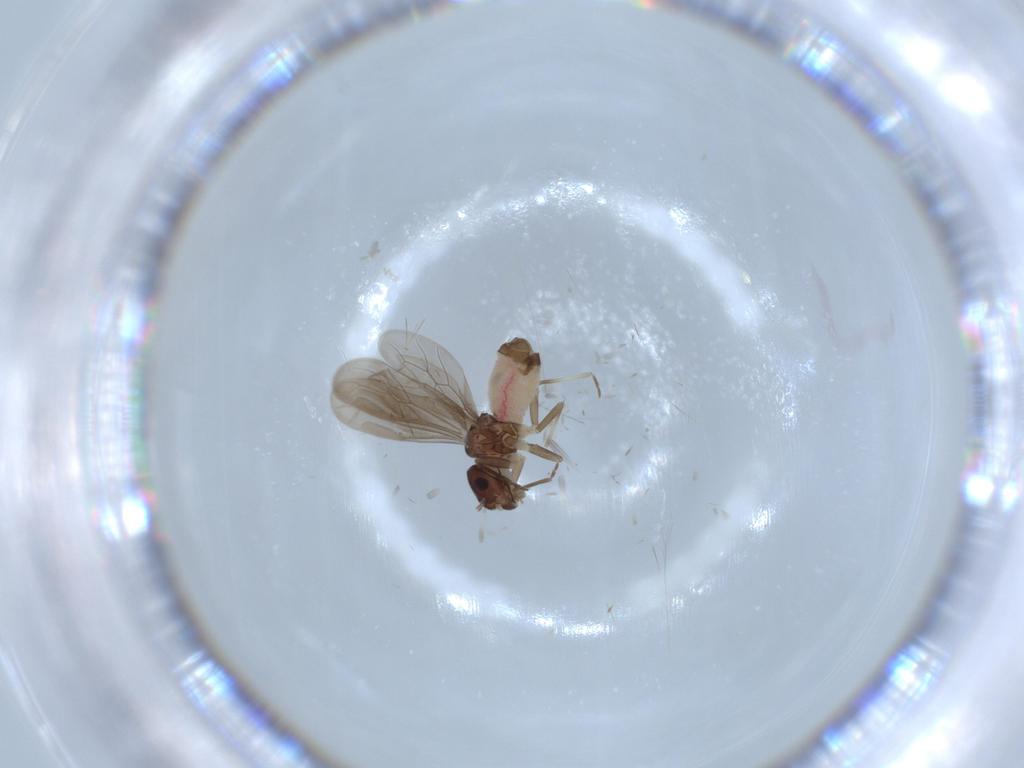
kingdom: Animalia
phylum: Arthropoda
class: Insecta
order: Psocodea
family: Asiopsocidae
